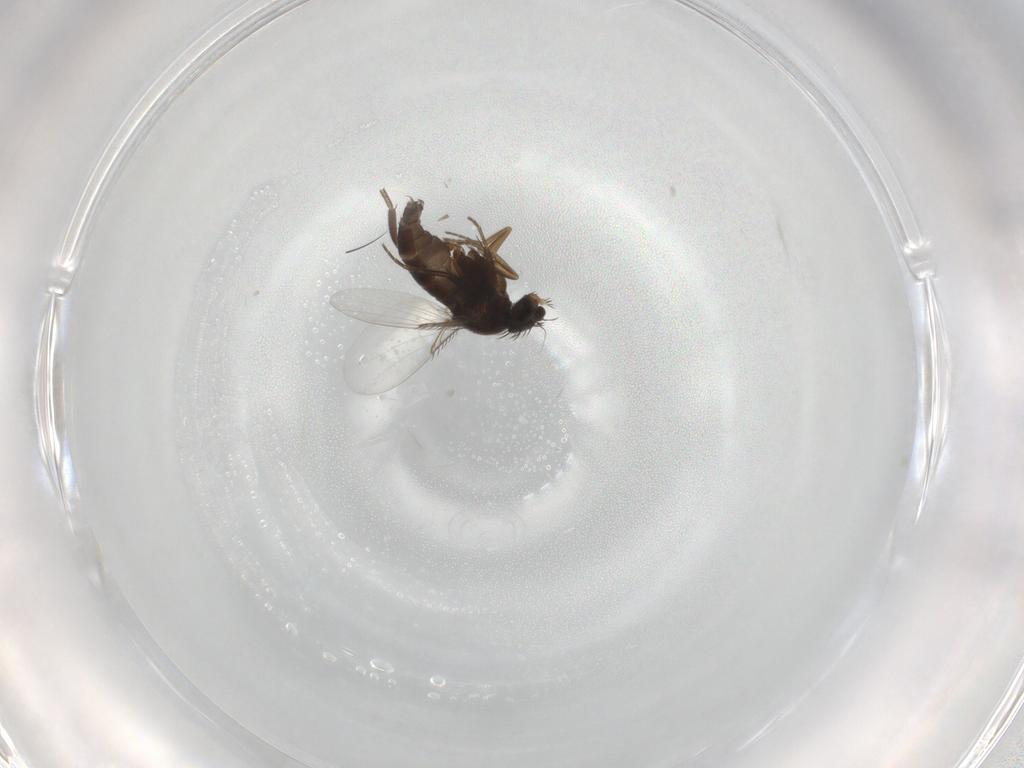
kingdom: Animalia
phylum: Arthropoda
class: Insecta
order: Diptera
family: Phoridae
